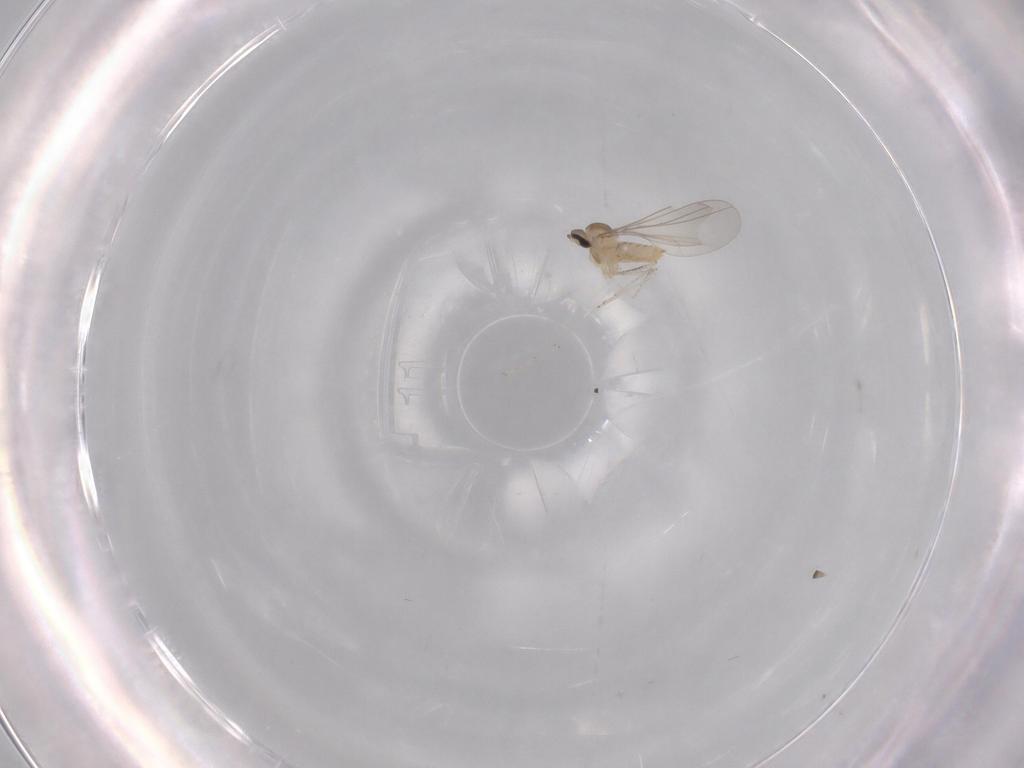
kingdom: Animalia
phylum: Arthropoda
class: Insecta
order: Diptera
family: Cecidomyiidae
